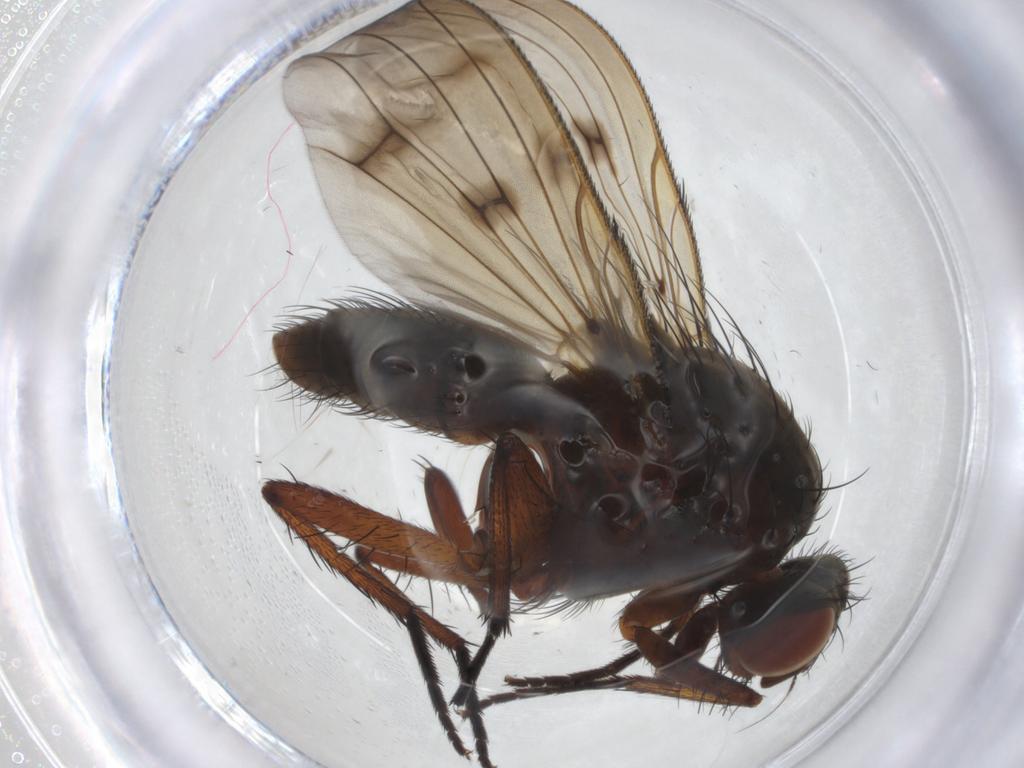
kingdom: Animalia
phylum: Arthropoda
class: Insecta
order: Diptera
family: Anthomyiidae
